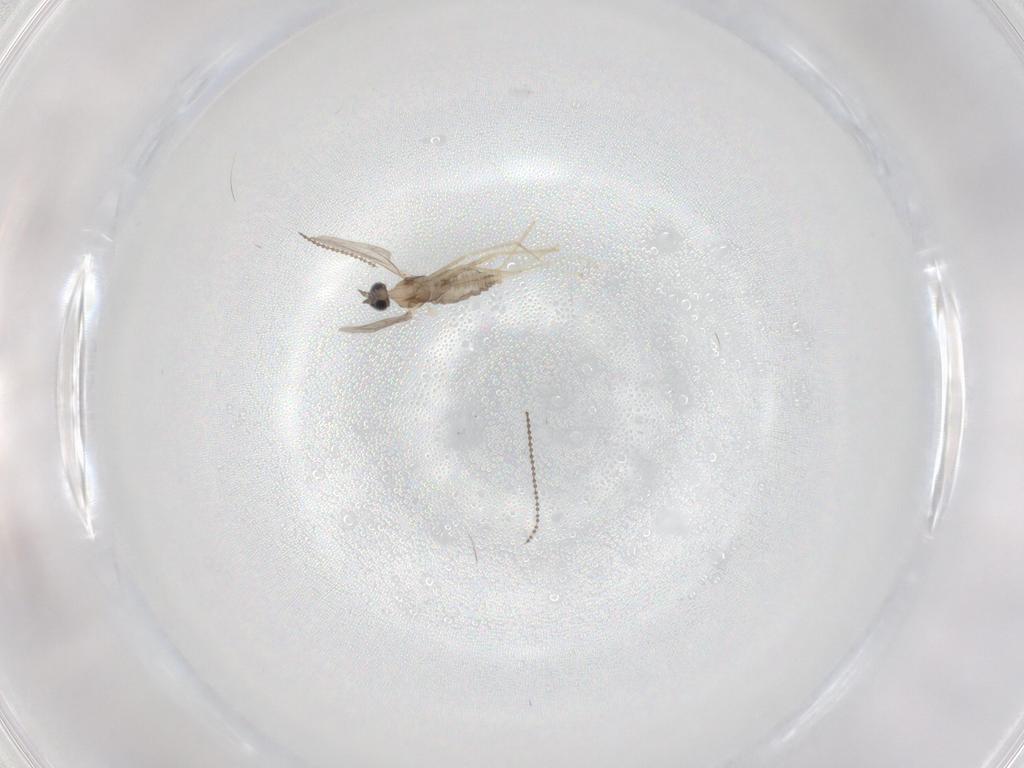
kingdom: Animalia
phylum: Arthropoda
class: Insecta
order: Diptera
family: Cecidomyiidae
